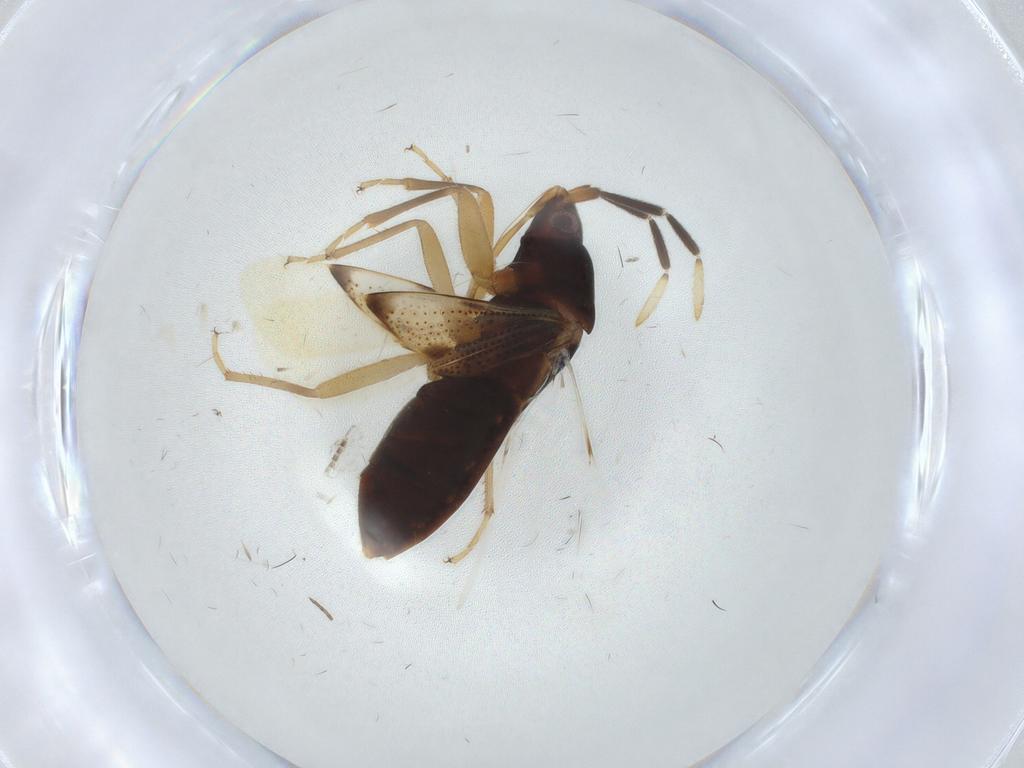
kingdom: Animalia
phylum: Arthropoda
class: Insecta
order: Hemiptera
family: Rhyparochromidae
